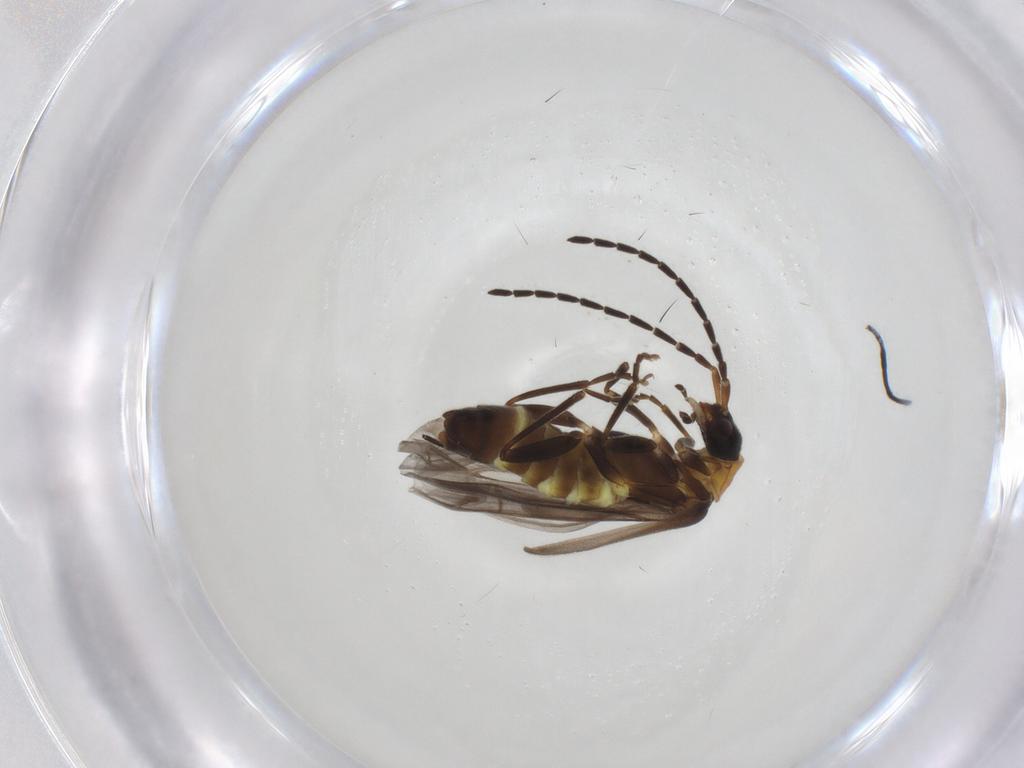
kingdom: Animalia
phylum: Arthropoda
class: Insecta
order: Coleoptera
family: Cantharidae
